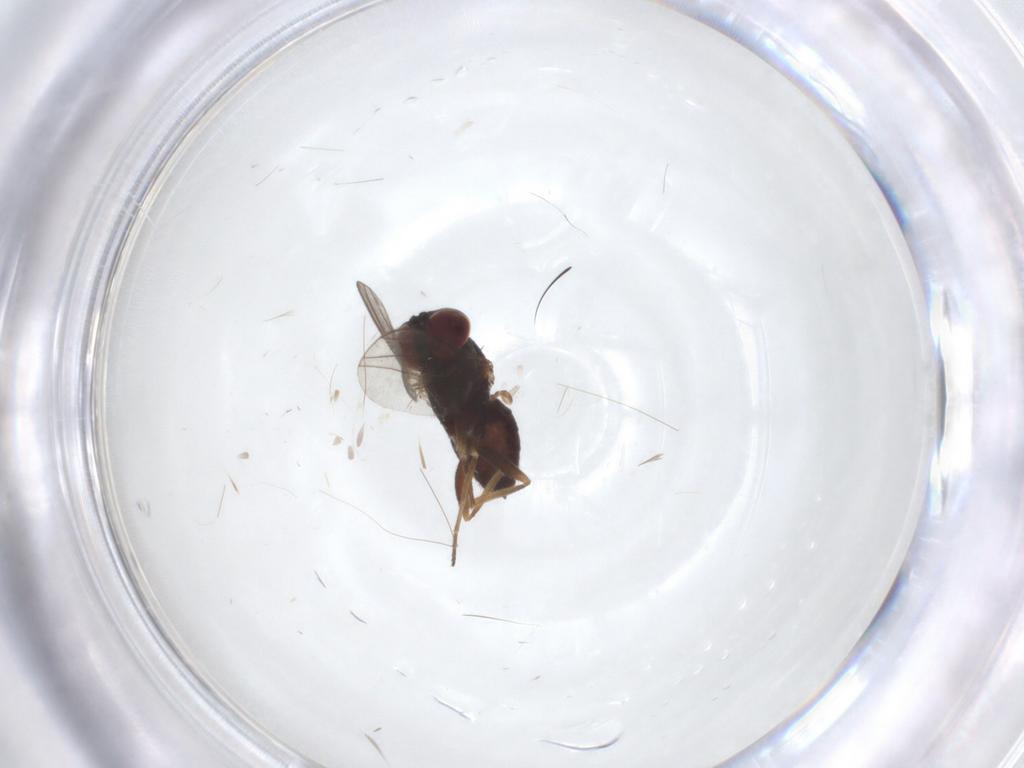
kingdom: Animalia
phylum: Arthropoda
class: Insecta
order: Diptera
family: Dolichopodidae
